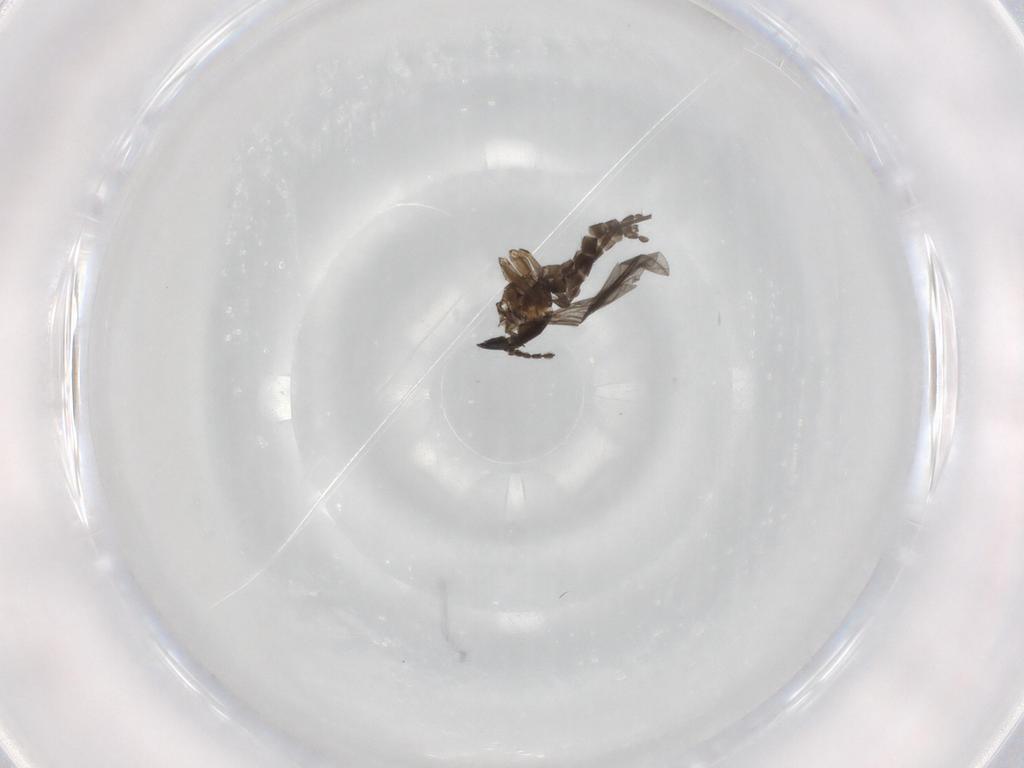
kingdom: Animalia
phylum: Arthropoda
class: Insecta
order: Diptera
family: Sciaridae
